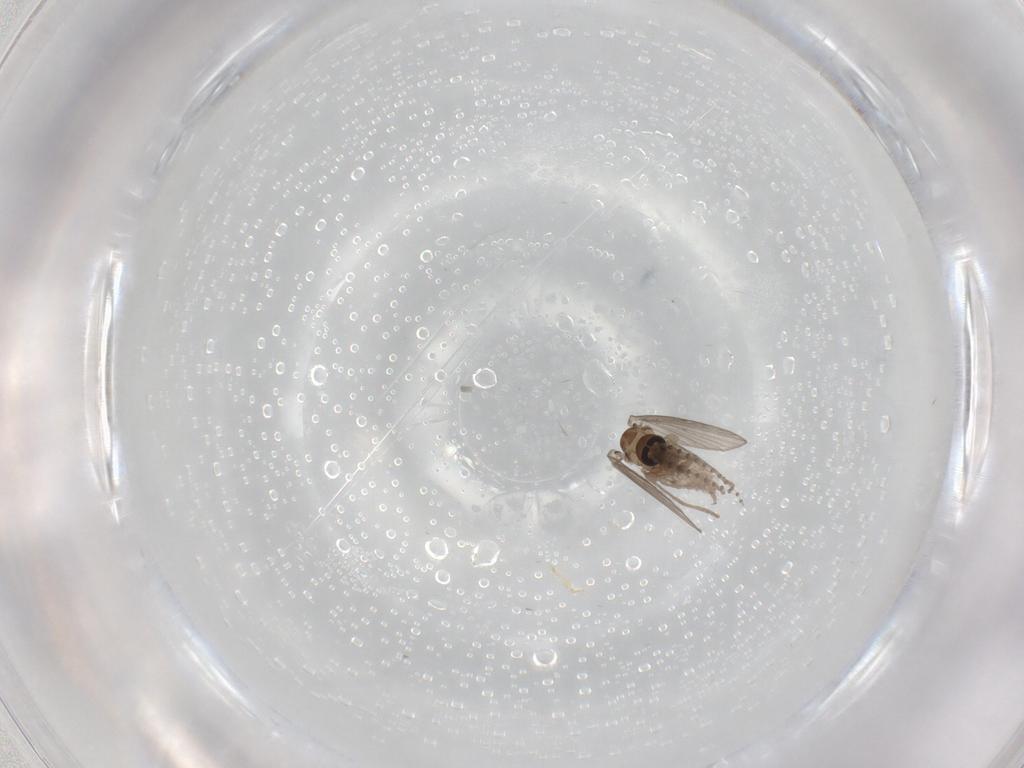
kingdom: Animalia
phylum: Arthropoda
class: Insecta
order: Diptera
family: Psychodidae
